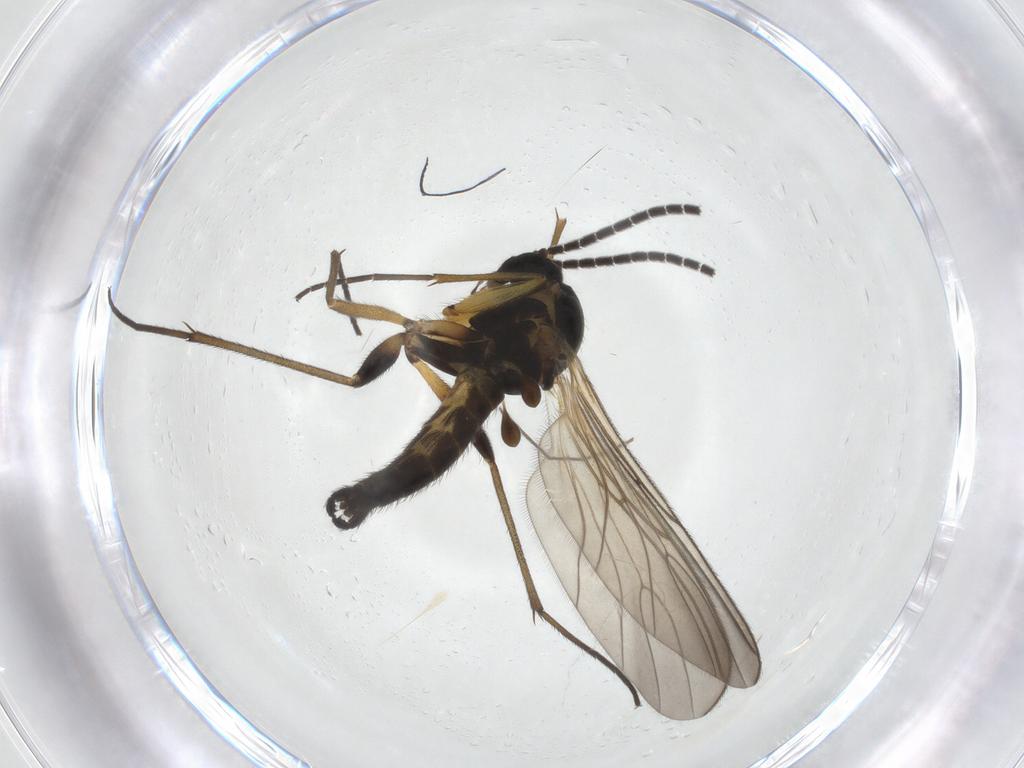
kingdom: Animalia
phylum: Arthropoda
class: Insecta
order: Diptera
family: Sciaridae
